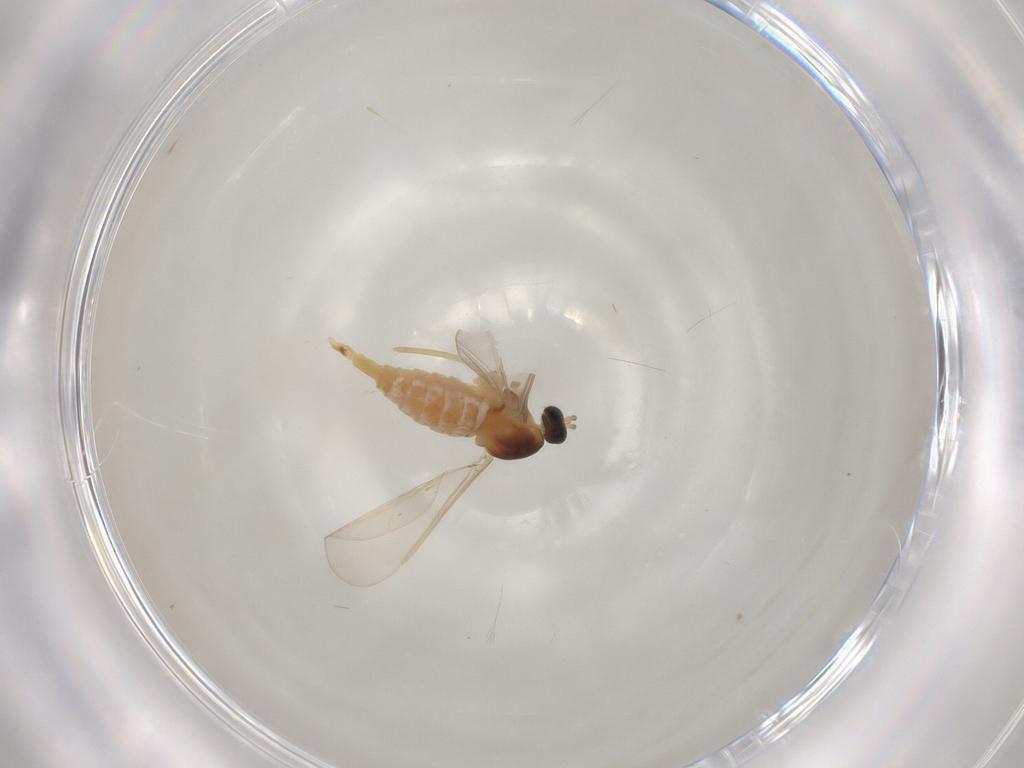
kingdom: Animalia
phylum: Arthropoda
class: Insecta
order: Diptera
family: Cecidomyiidae
